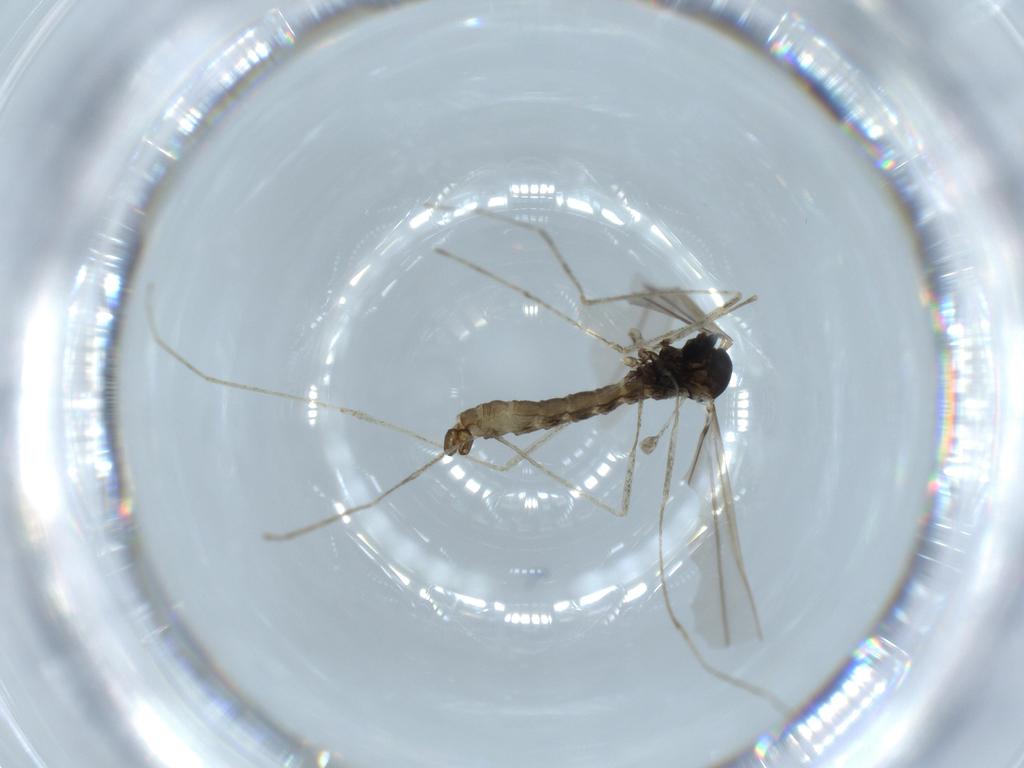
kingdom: Animalia
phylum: Arthropoda
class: Insecta
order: Diptera
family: Cecidomyiidae
